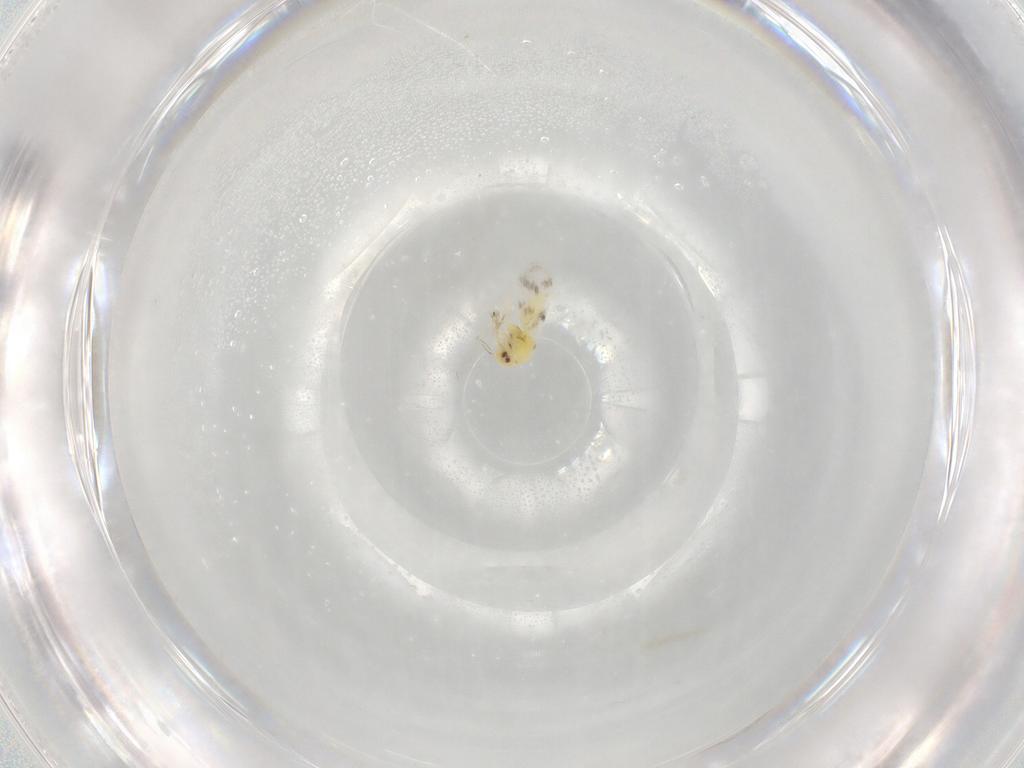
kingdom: Animalia
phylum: Arthropoda
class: Insecta
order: Hemiptera
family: Aleyrodidae
